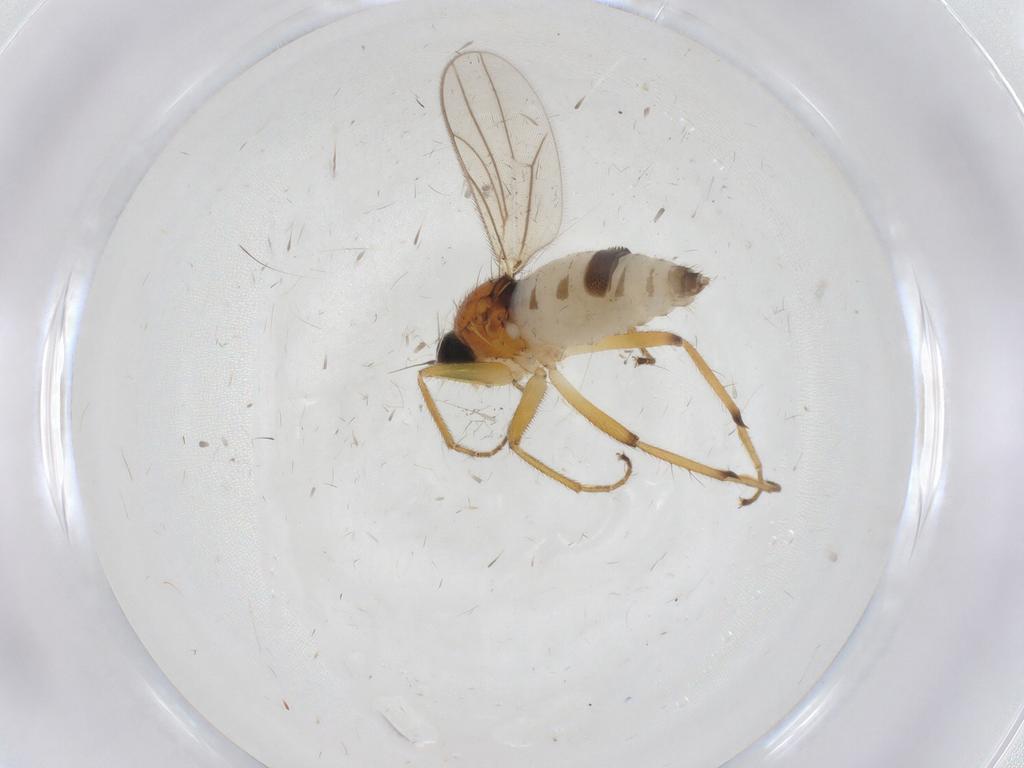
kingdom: Animalia
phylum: Arthropoda
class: Insecta
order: Diptera
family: Hybotidae
